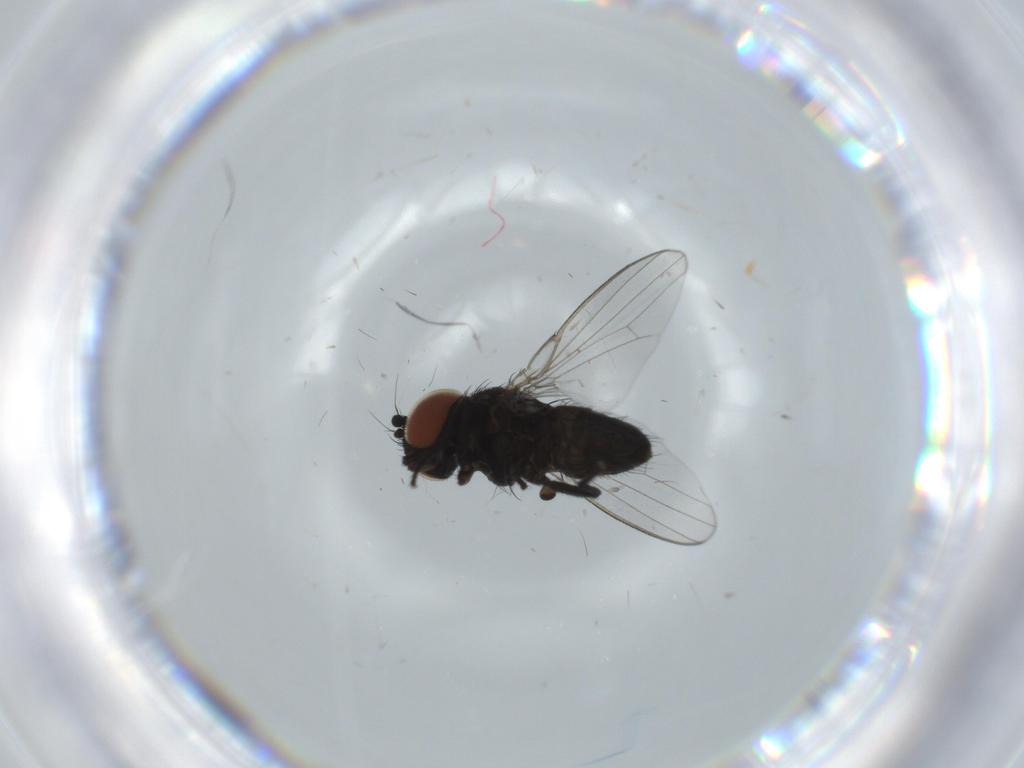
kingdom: Animalia
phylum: Arthropoda
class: Insecta
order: Diptera
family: Milichiidae
